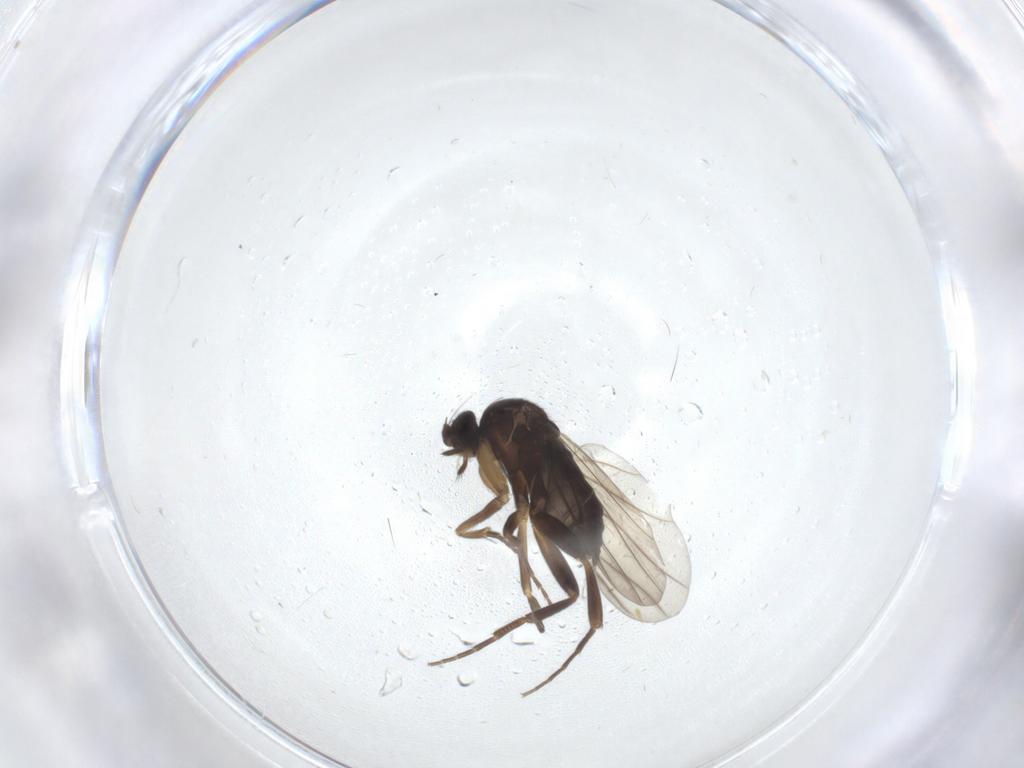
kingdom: Animalia
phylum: Arthropoda
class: Insecta
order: Diptera
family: Phoridae
